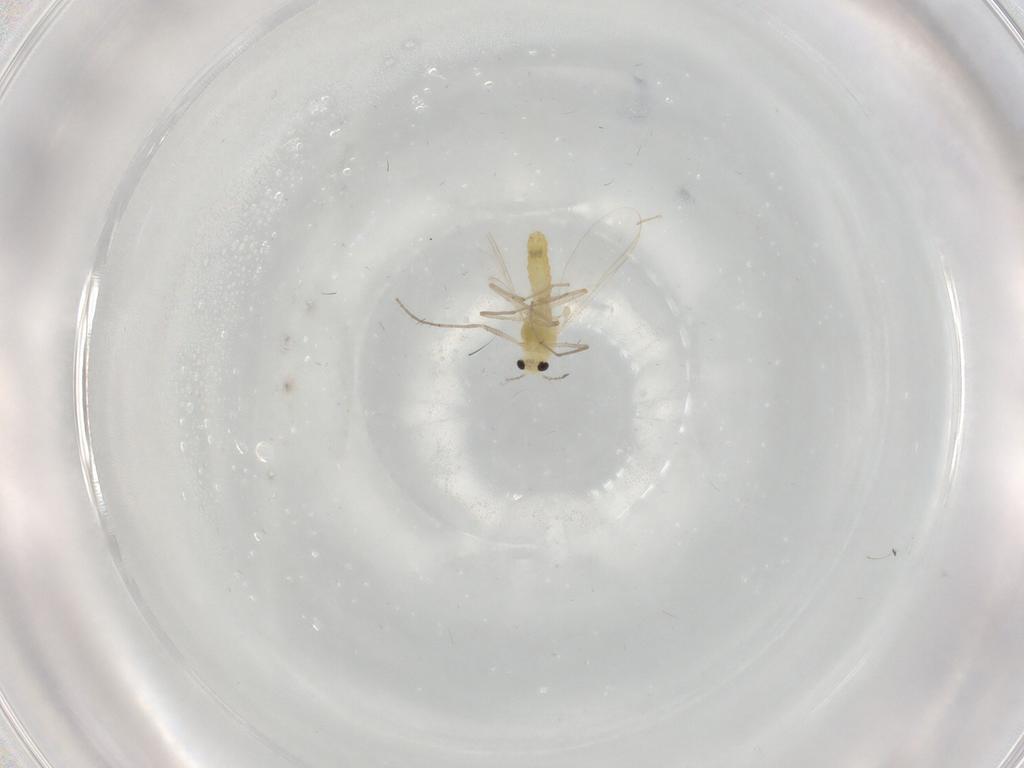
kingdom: Animalia
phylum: Arthropoda
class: Insecta
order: Diptera
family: Chironomidae
